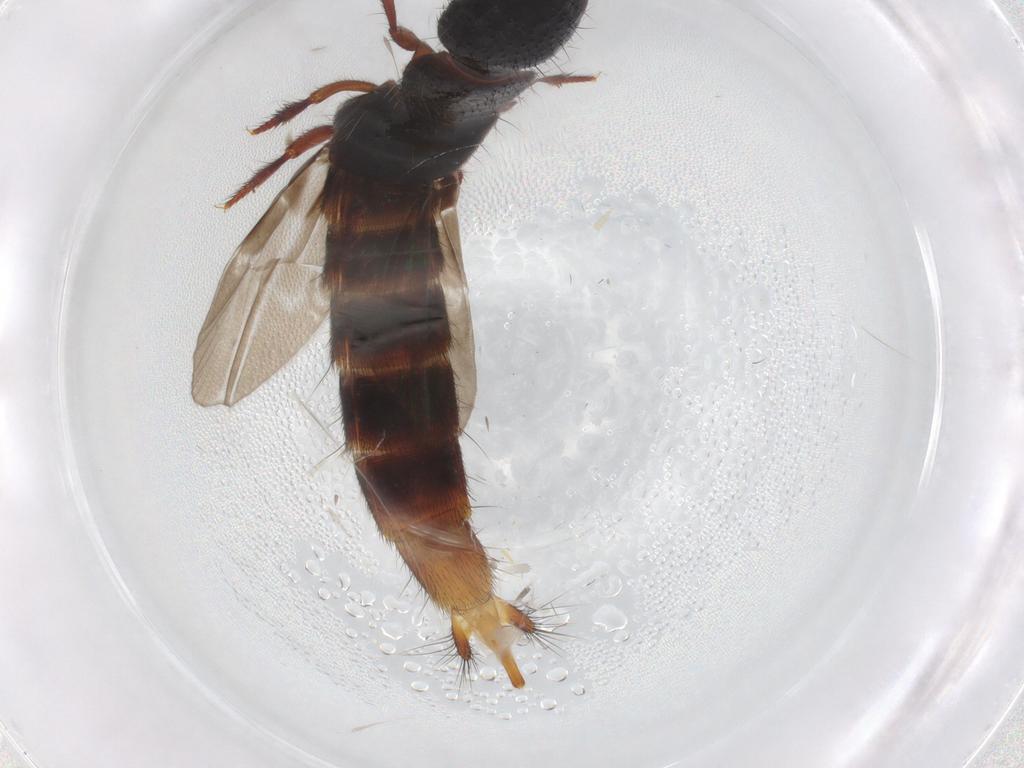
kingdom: Animalia
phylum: Arthropoda
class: Insecta
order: Coleoptera
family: Staphylinidae
